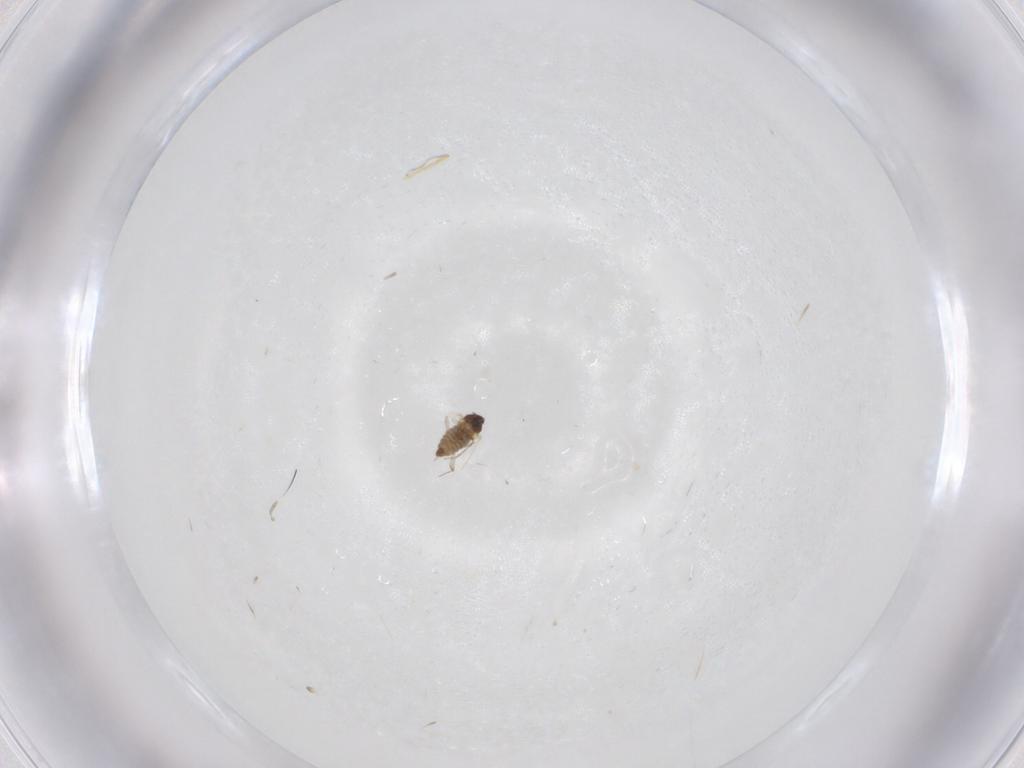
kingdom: Animalia
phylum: Arthropoda
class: Insecta
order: Diptera
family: Cecidomyiidae
